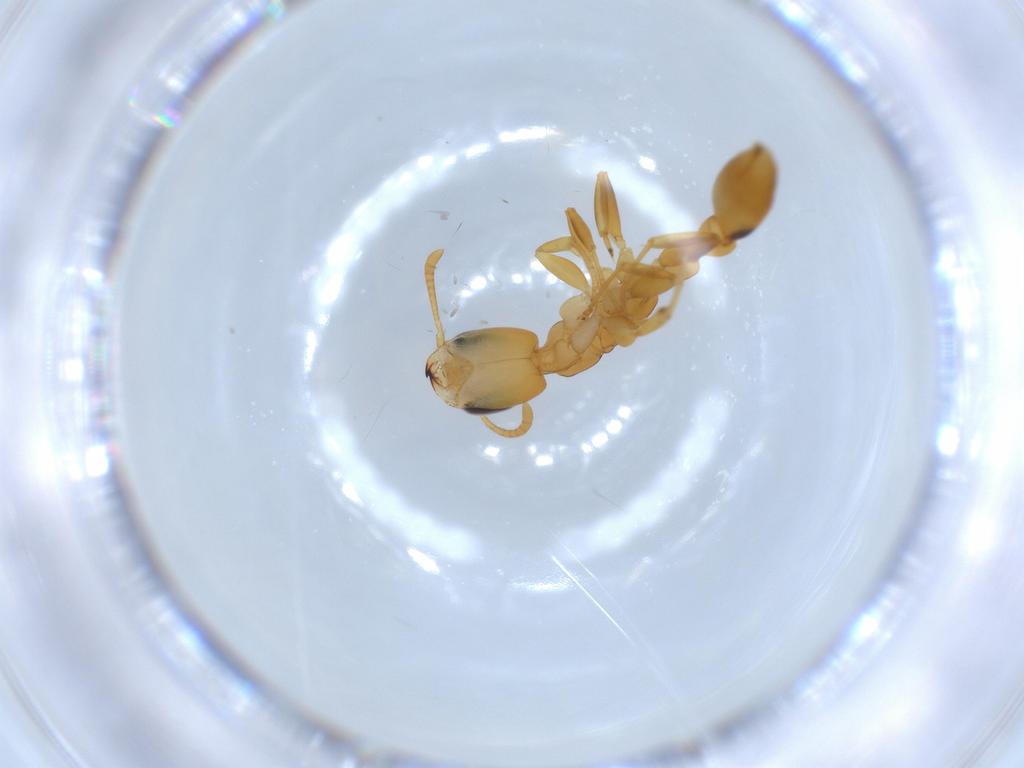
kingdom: Animalia
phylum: Arthropoda
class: Insecta
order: Hymenoptera
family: Formicidae
